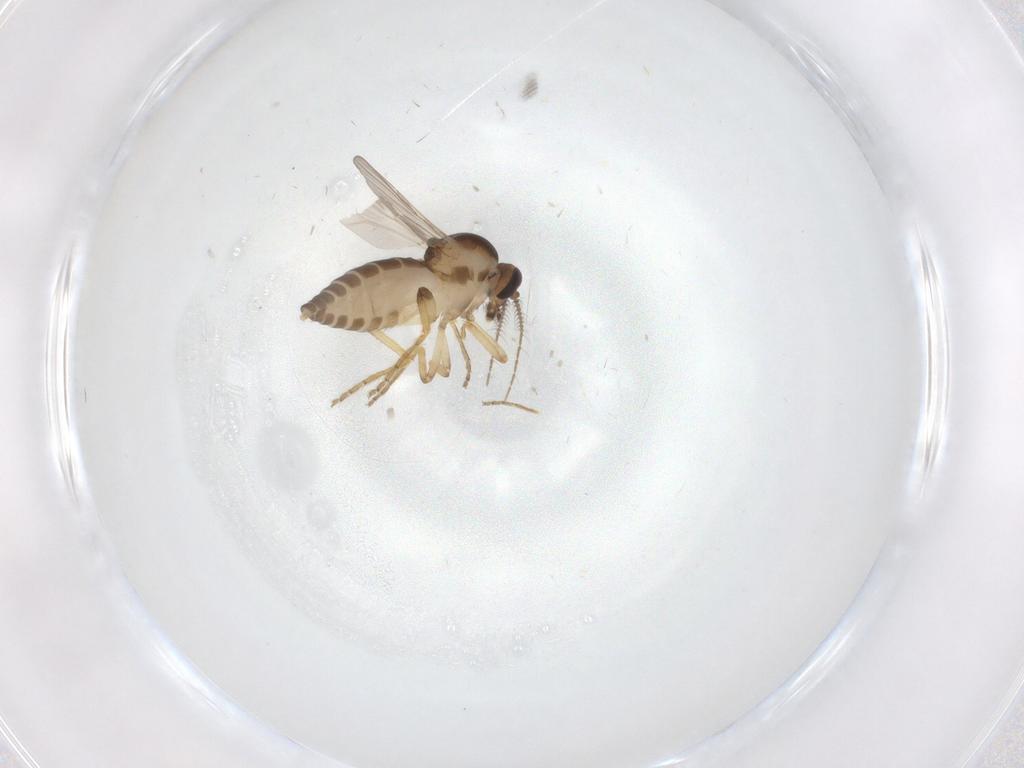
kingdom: Animalia
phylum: Arthropoda
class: Insecta
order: Diptera
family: Ceratopogonidae
